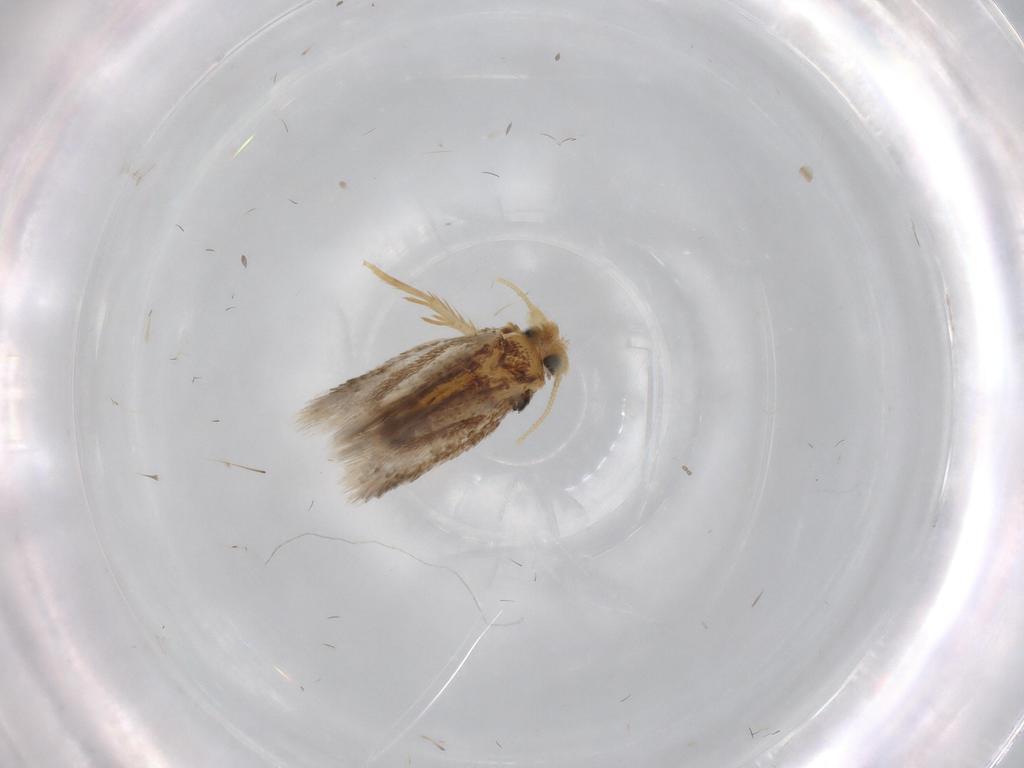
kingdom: Animalia
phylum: Arthropoda
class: Insecta
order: Lepidoptera
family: Nepticulidae
